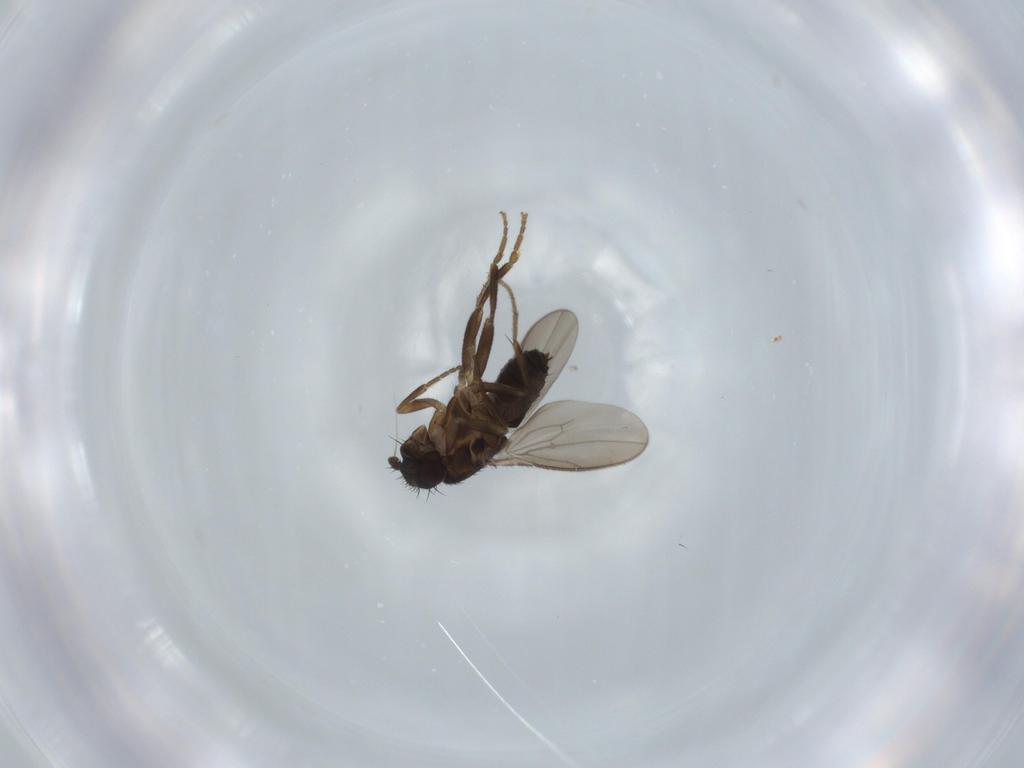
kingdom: Animalia
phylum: Arthropoda
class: Insecta
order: Diptera
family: Sphaeroceridae
